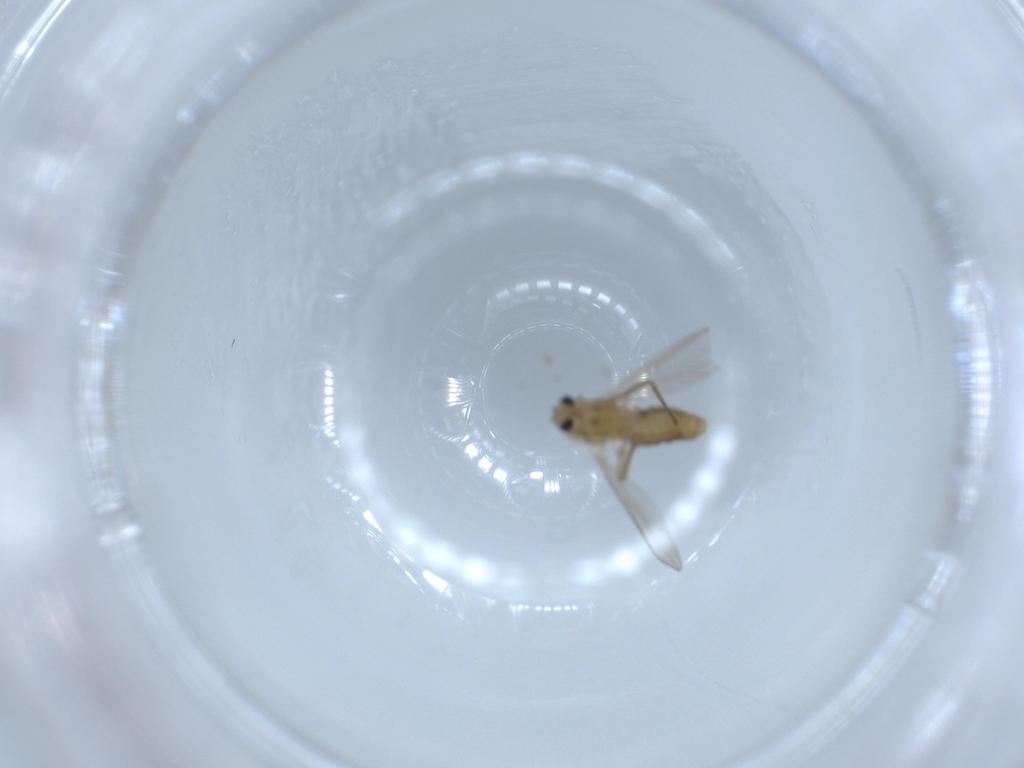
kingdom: Animalia
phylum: Arthropoda
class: Insecta
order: Diptera
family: Chironomidae
